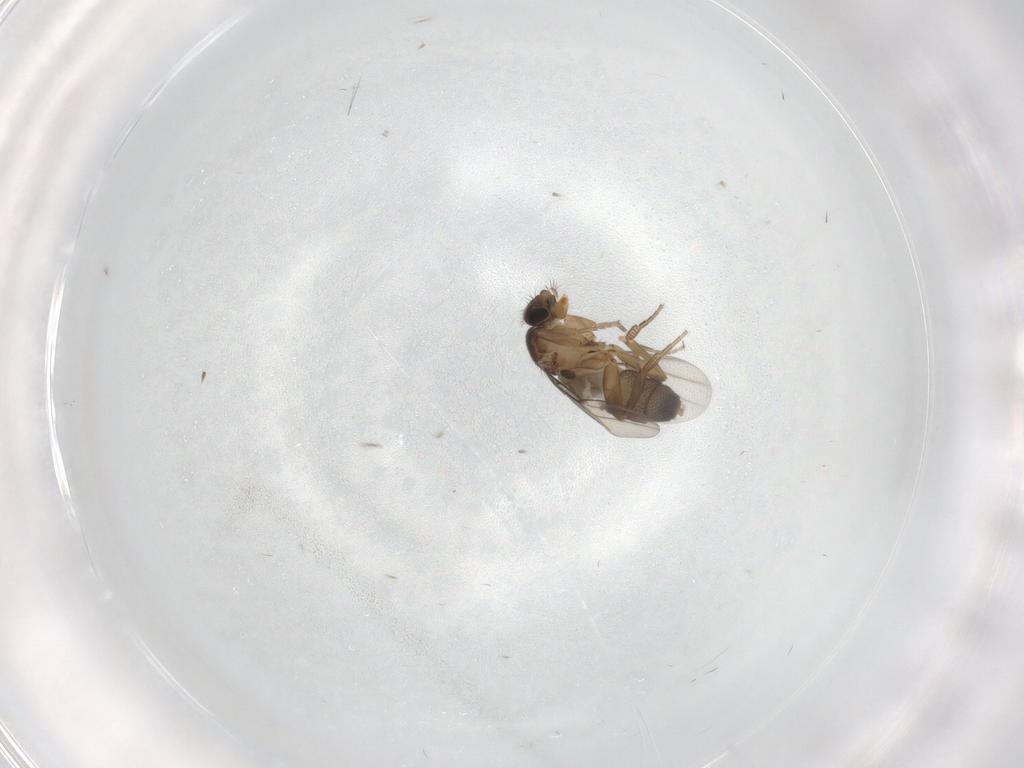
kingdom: Animalia
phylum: Arthropoda
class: Insecta
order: Diptera
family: Phoridae
